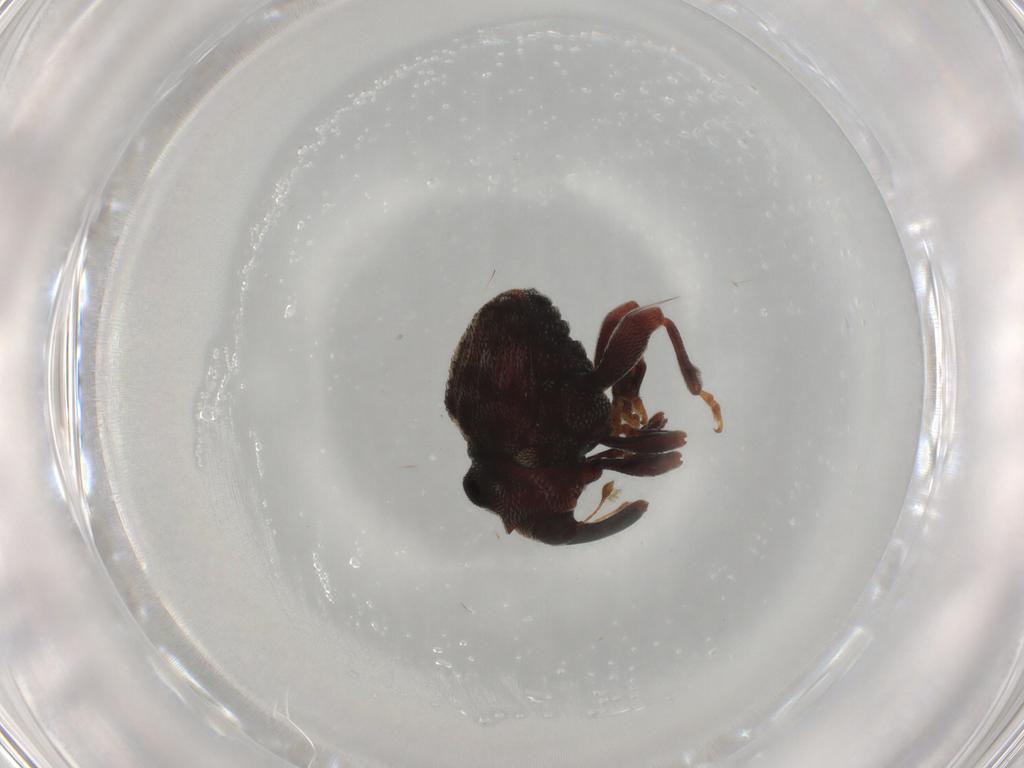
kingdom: Animalia
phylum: Arthropoda
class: Insecta
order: Coleoptera
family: Curculionidae
